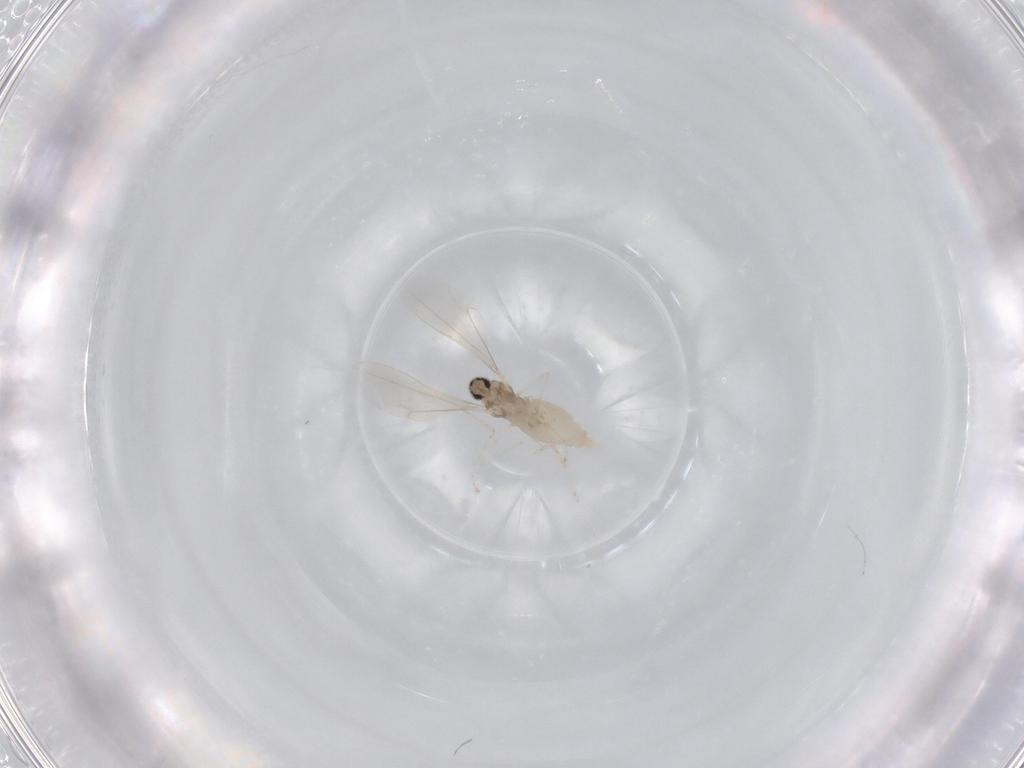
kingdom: Animalia
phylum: Arthropoda
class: Insecta
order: Diptera
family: Cecidomyiidae
